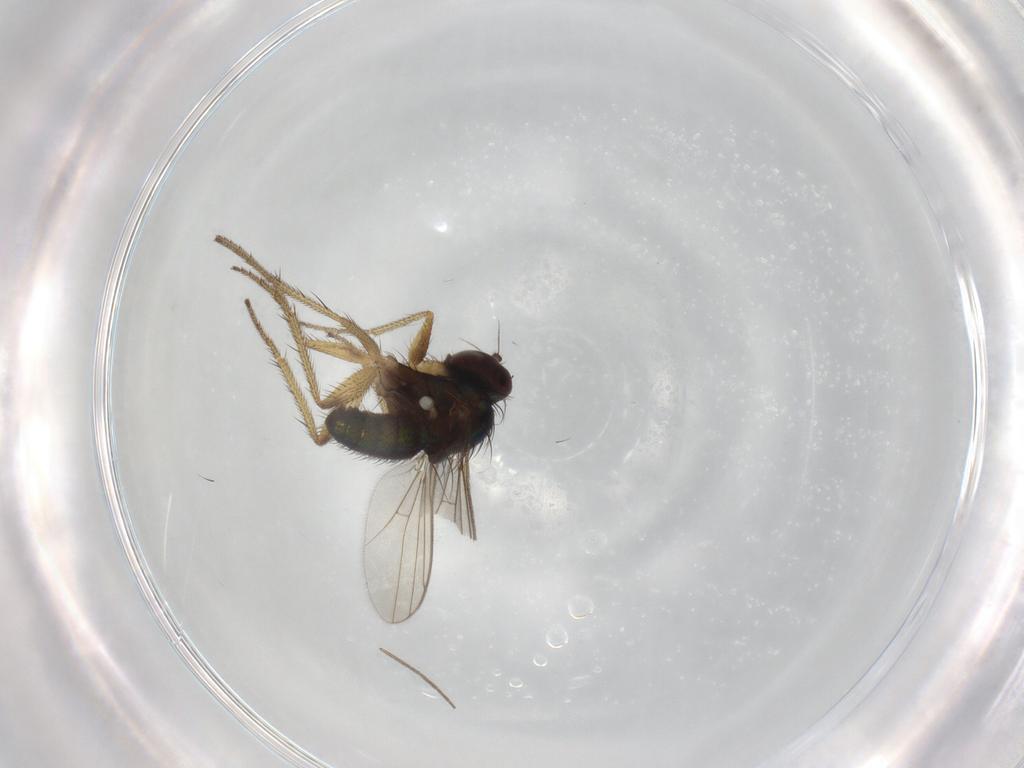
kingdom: Animalia
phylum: Arthropoda
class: Insecta
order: Diptera
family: Dolichopodidae
